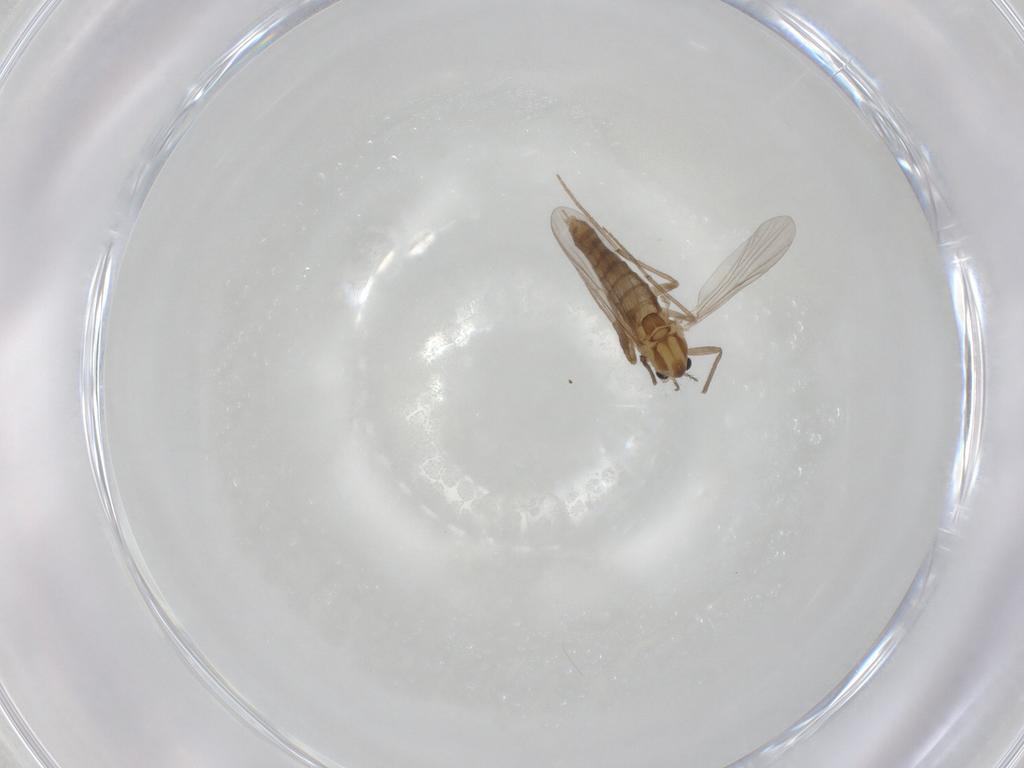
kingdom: Animalia
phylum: Arthropoda
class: Insecta
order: Diptera
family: Chironomidae
